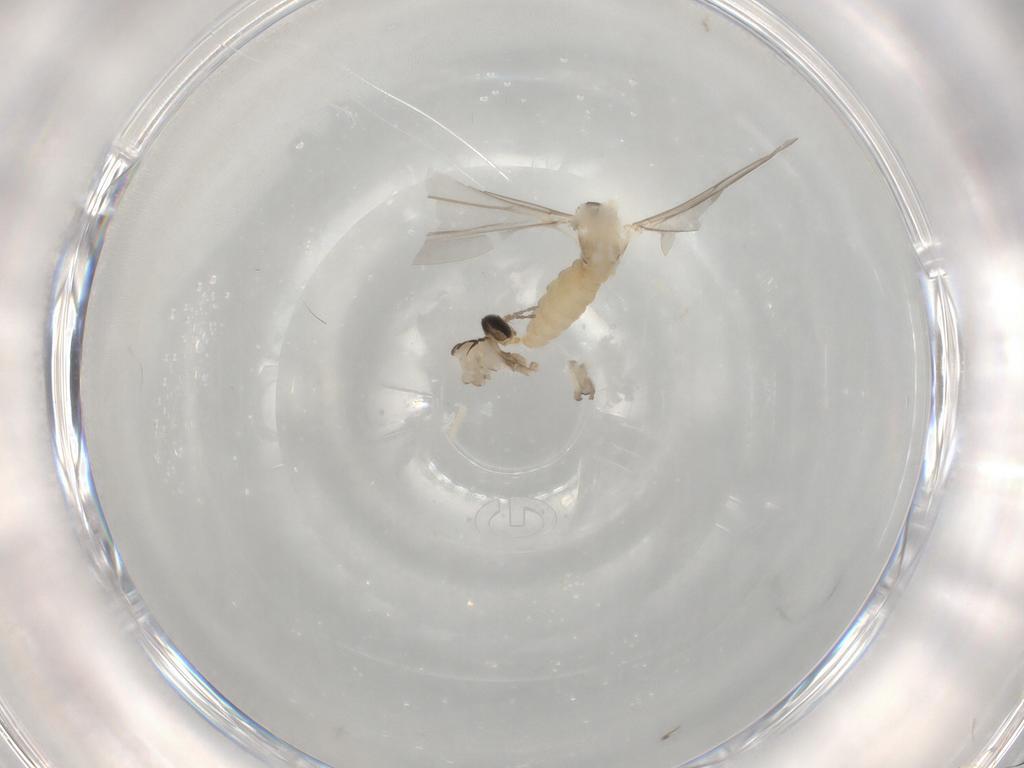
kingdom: Animalia
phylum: Arthropoda
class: Insecta
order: Diptera
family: Cecidomyiidae
